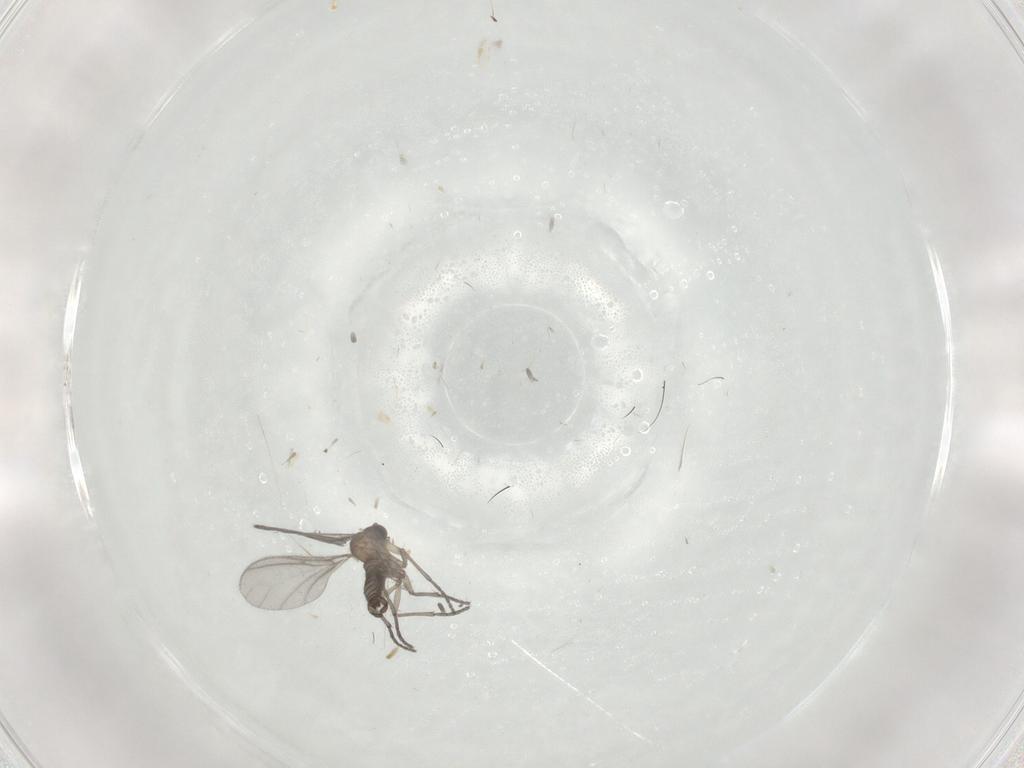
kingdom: Animalia
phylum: Arthropoda
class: Insecta
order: Diptera
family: Sciaridae
